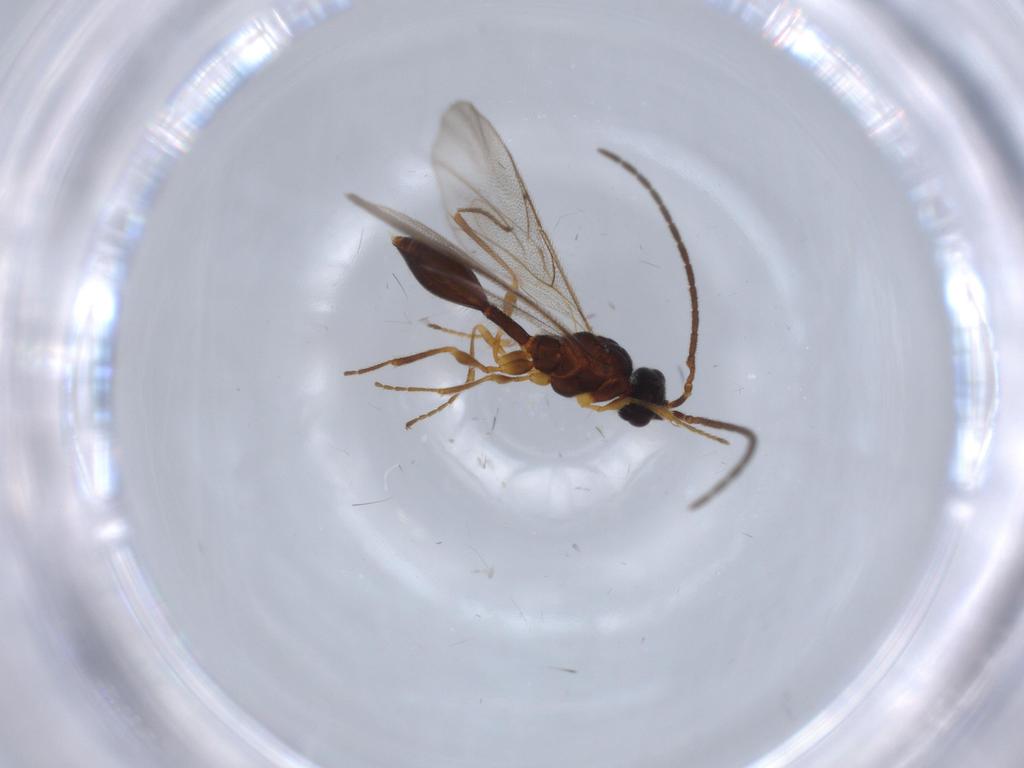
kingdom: Animalia
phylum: Arthropoda
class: Insecta
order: Hymenoptera
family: Diapriidae
